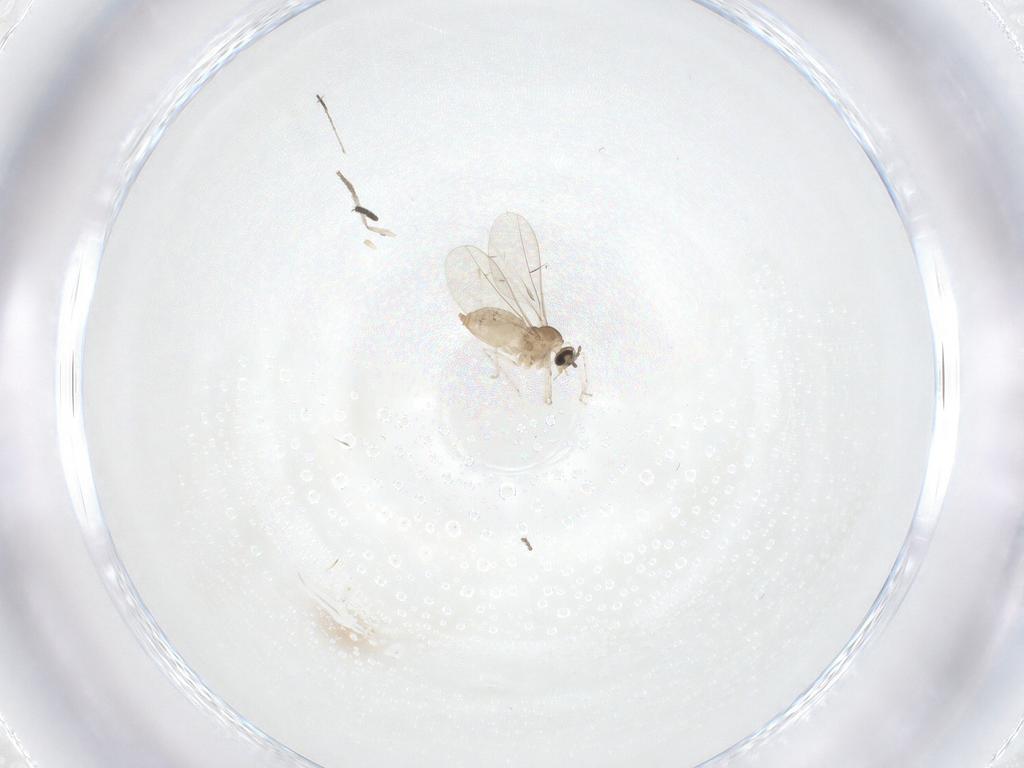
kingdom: Animalia
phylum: Arthropoda
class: Insecta
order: Diptera
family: Cecidomyiidae
